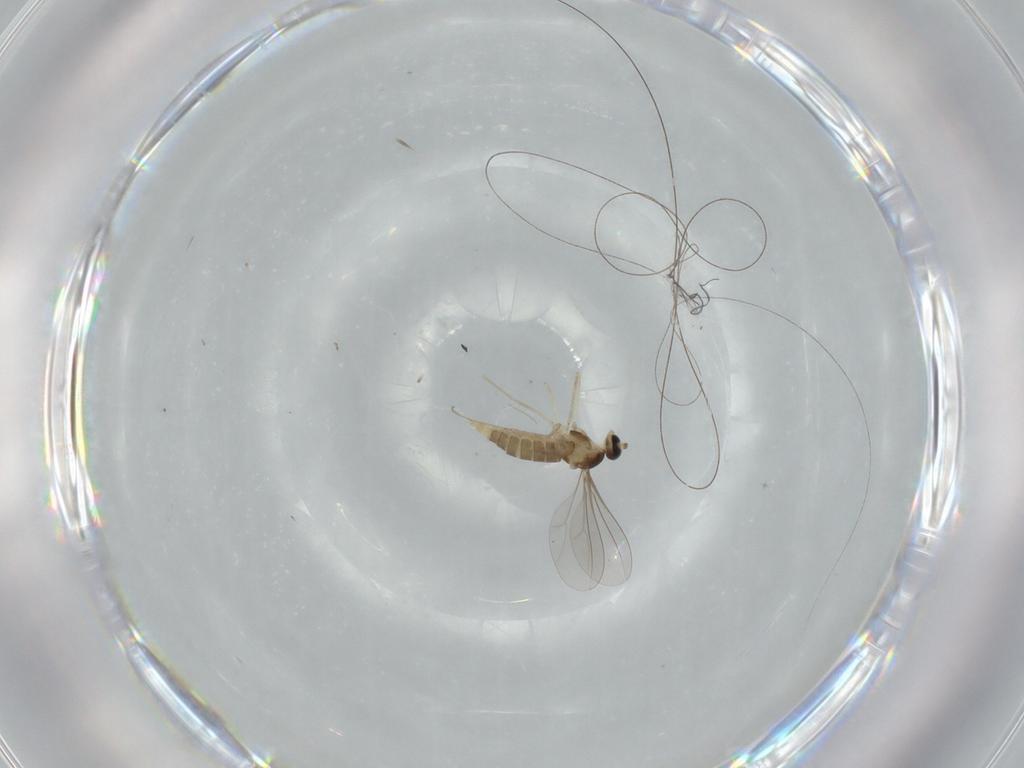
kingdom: Animalia
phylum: Arthropoda
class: Insecta
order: Diptera
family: Cecidomyiidae
